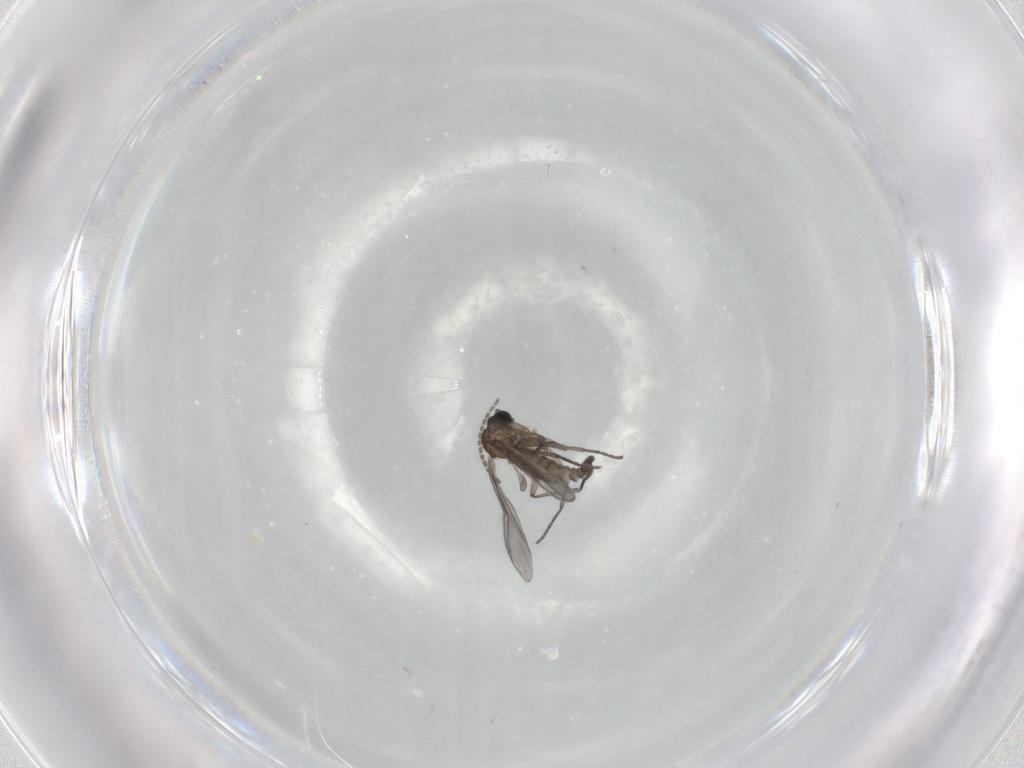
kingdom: Animalia
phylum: Arthropoda
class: Insecta
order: Diptera
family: Sciaridae
